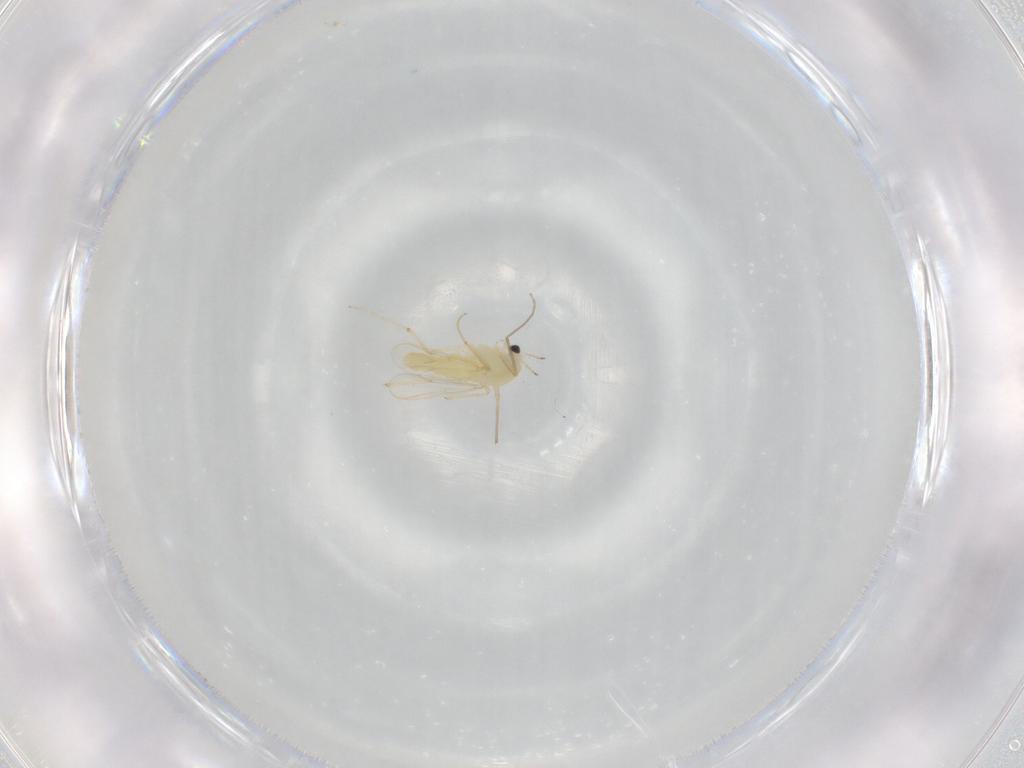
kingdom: Animalia
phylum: Arthropoda
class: Insecta
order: Diptera
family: Chironomidae
